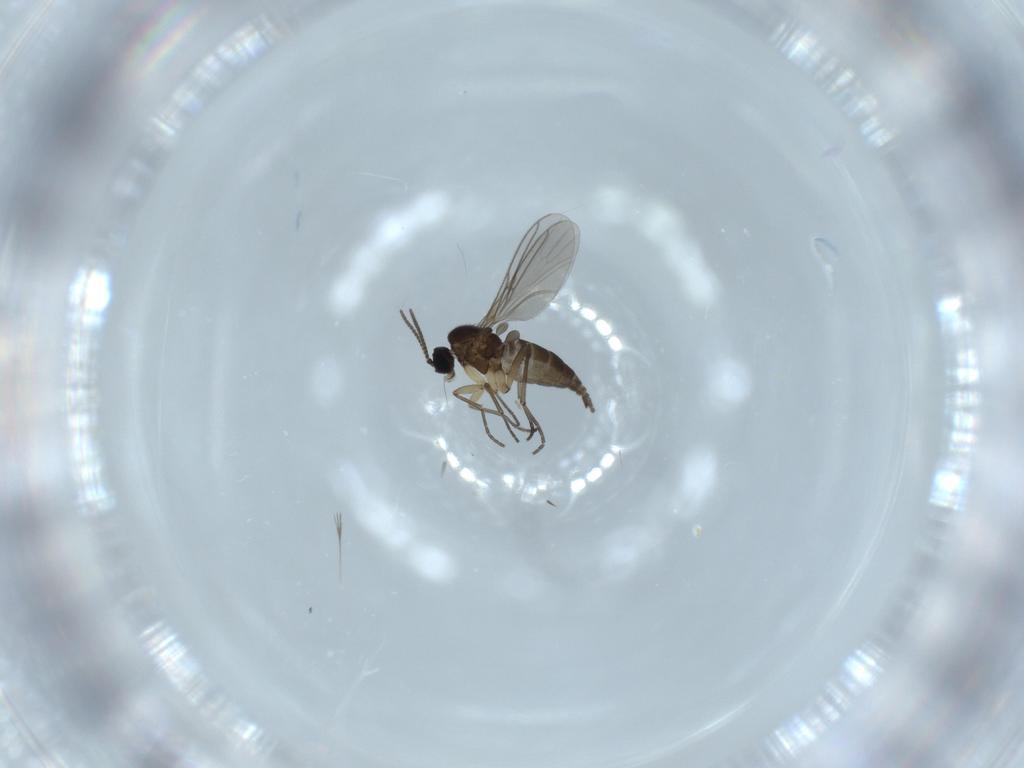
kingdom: Animalia
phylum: Arthropoda
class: Insecta
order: Diptera
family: Sciaridae
